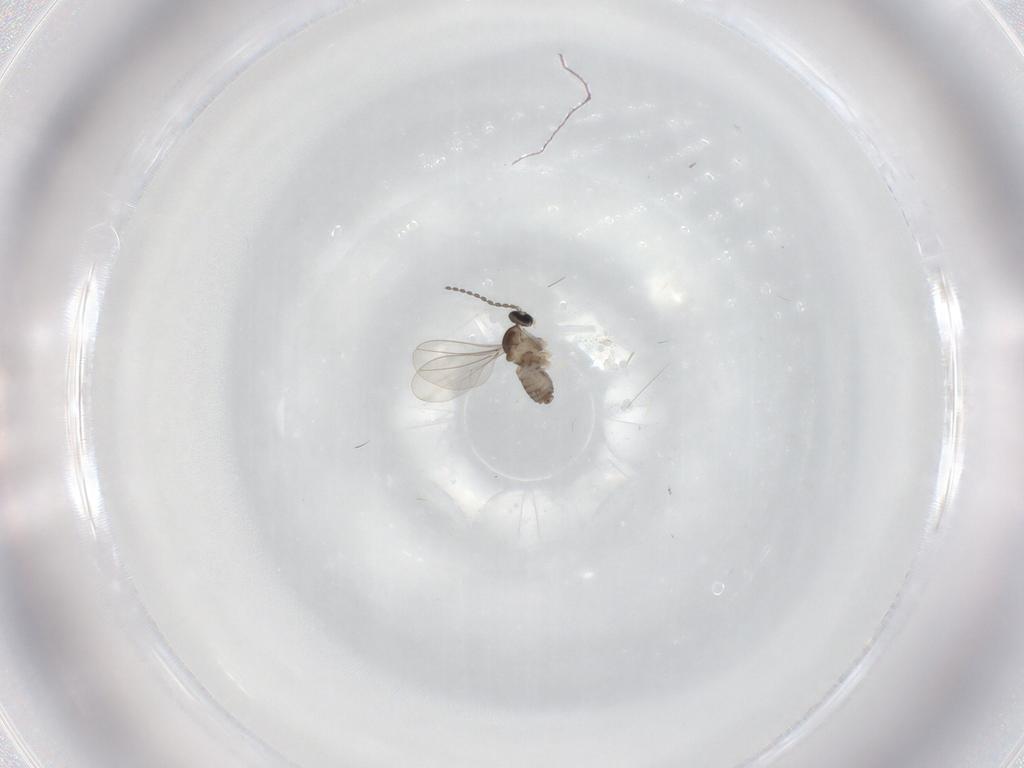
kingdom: Animalia
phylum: Arthropoda
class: Insecta
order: Diptera
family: Cecidomyiidae
